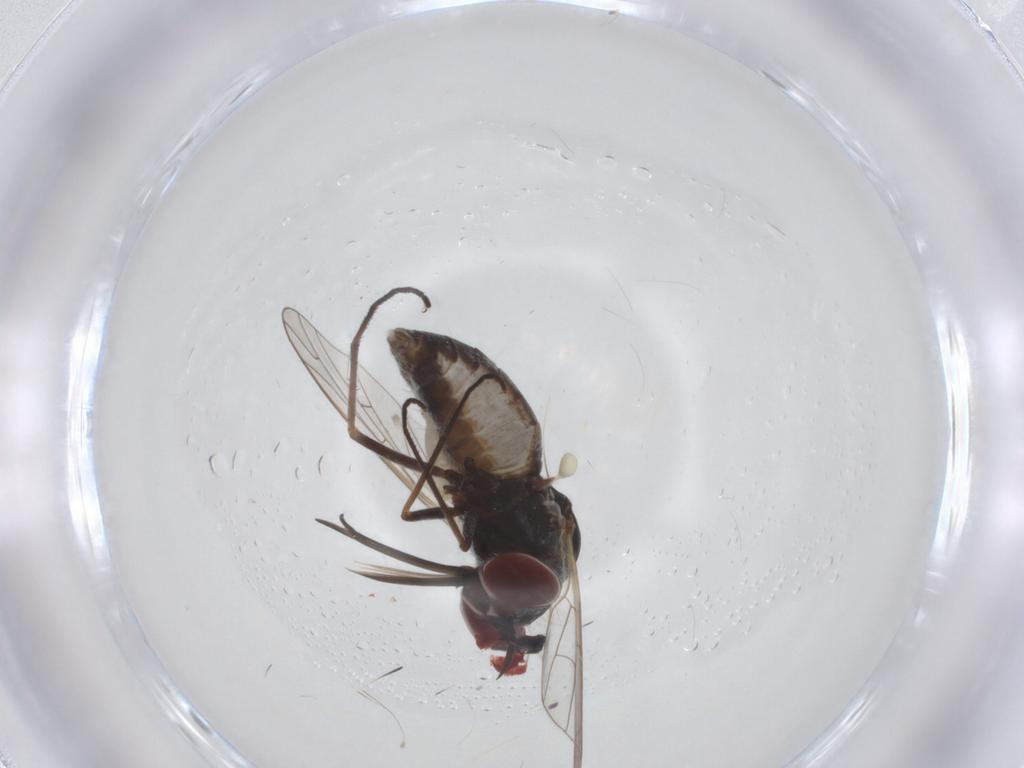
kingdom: Animalia
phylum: Arthropoda
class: Insecta
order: Diptera
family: Bombyliidae
